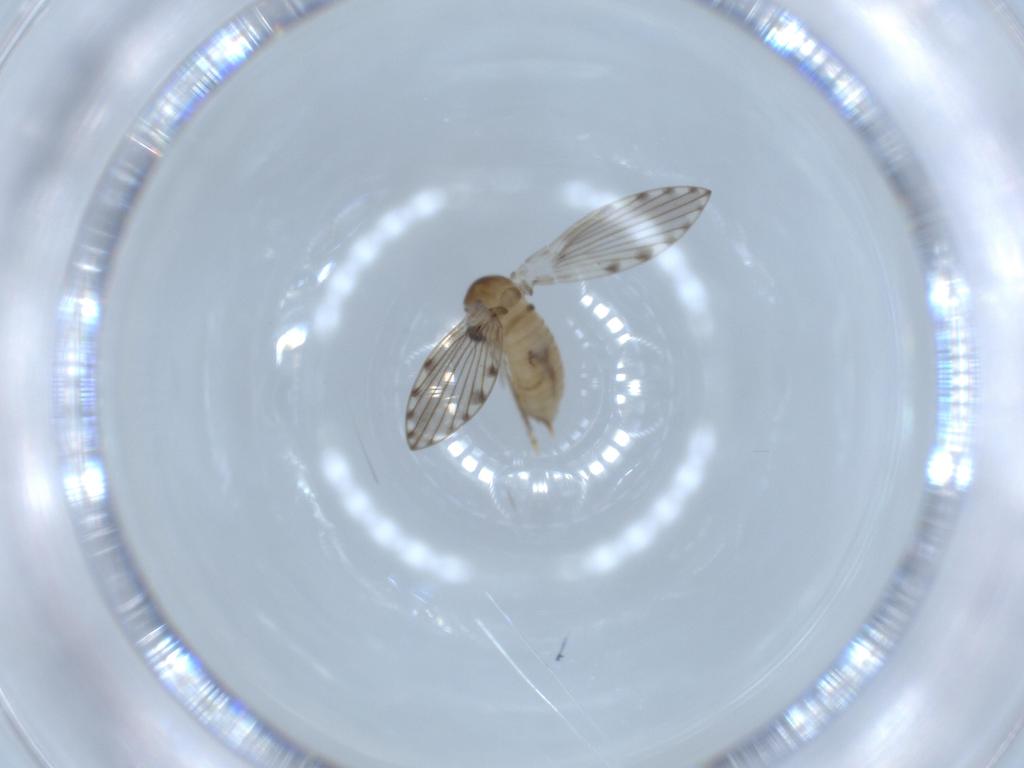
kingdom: Animalia
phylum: Arthropoda
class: Insecta
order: Diptera
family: Psychodidae
